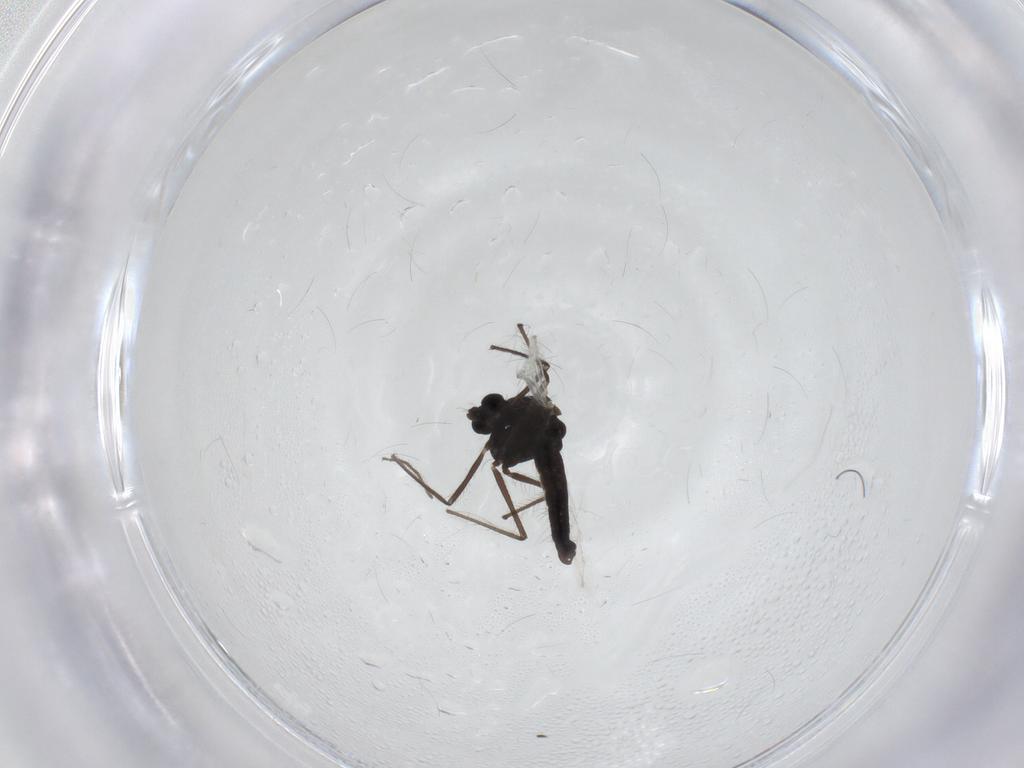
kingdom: Animalia
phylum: Arthropoda
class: Insecta
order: Diptera
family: Chironomidae
